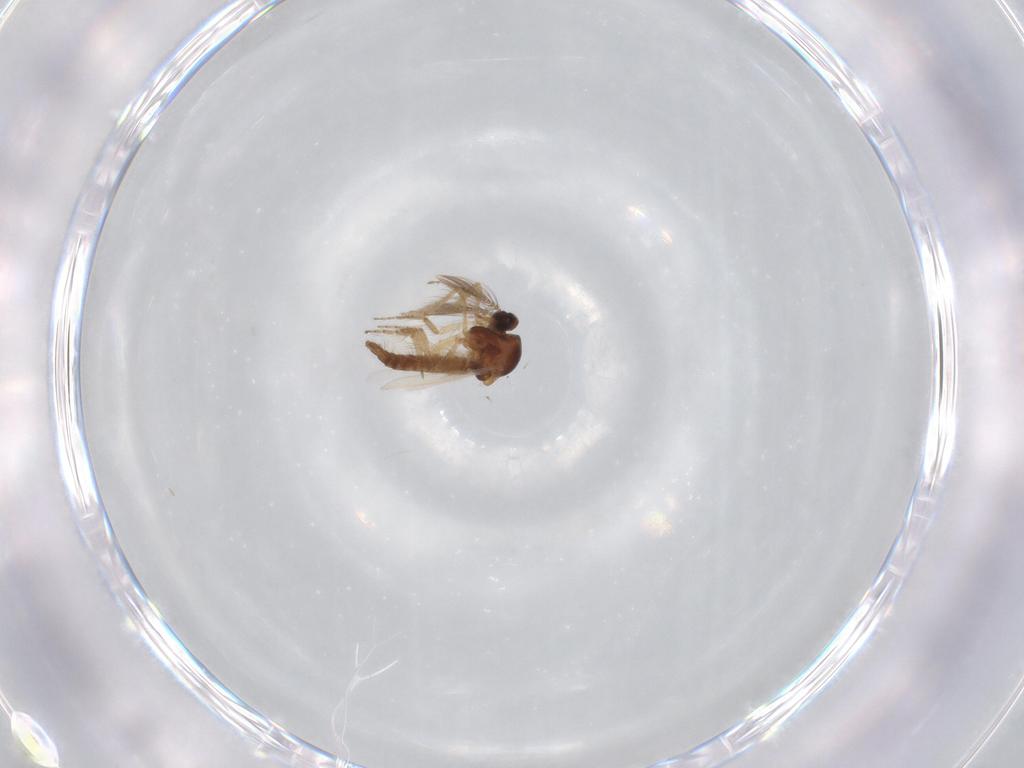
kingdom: Animalia
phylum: Arthropoda
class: Insecta
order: Diptera
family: Ceratopogonidae
